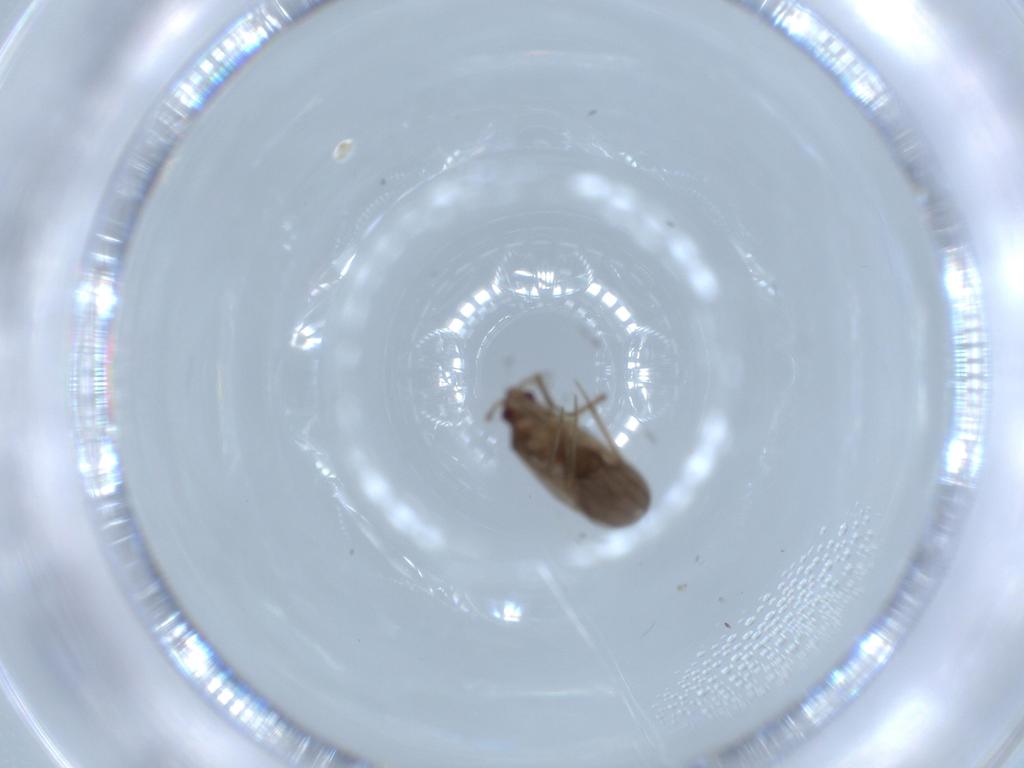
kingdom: Animalia
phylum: Arthropoda
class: Insecta
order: Hemiptera
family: Ceratocombidae
